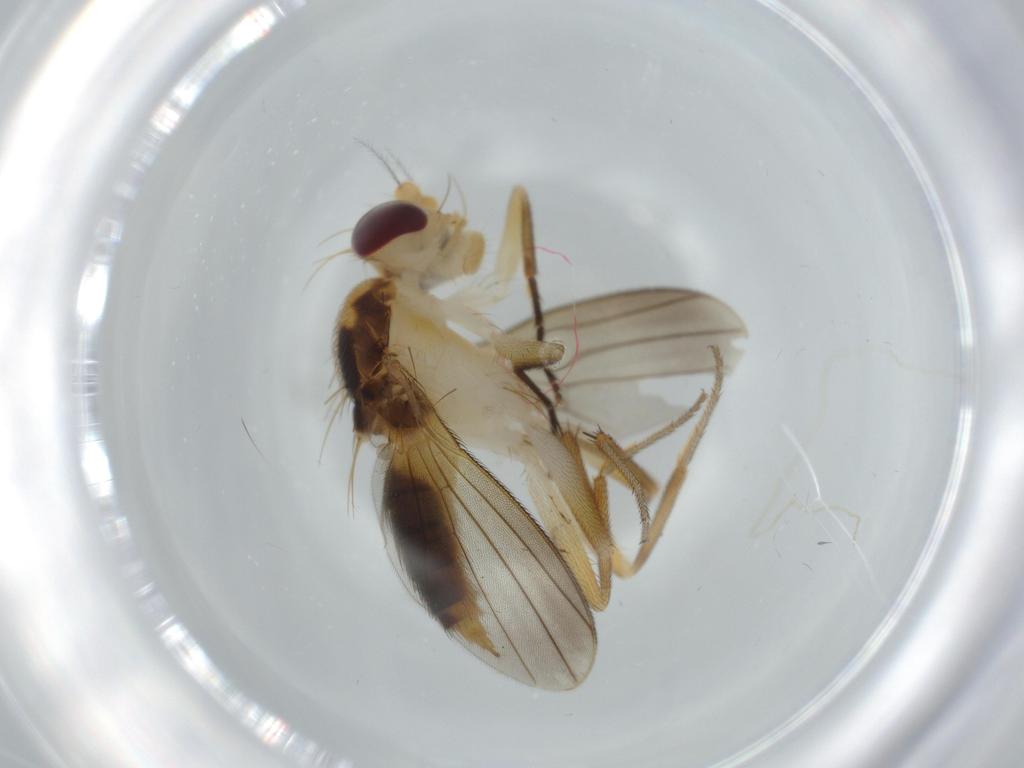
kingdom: Animalia
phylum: Arthropoda
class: Insecta
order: Diptera
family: Agromyzidae
